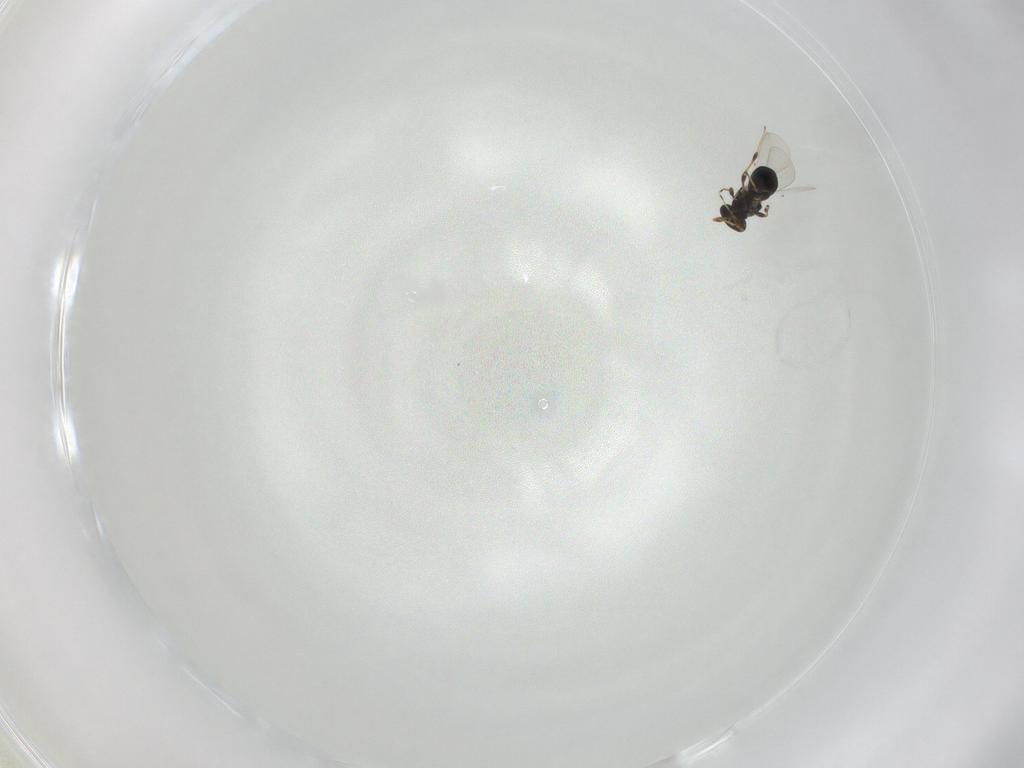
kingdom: Animalia
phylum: Arthropoda
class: Insecta
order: Hymenoptera
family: Platygastridae
